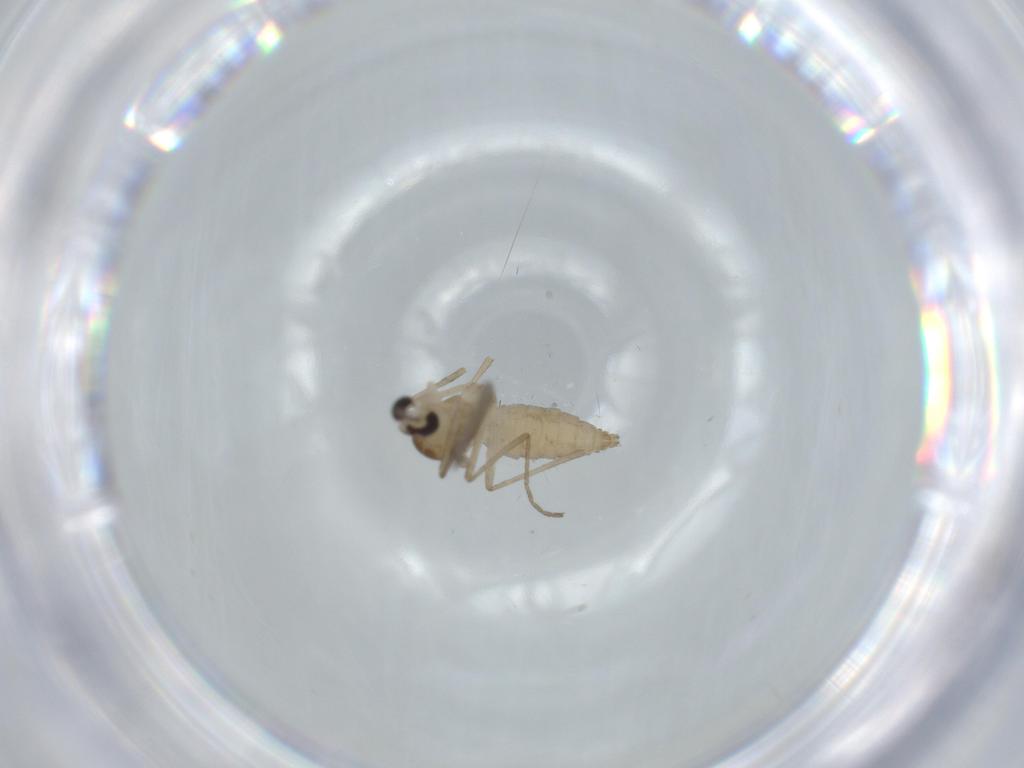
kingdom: Animalia
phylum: Arthropoda
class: Insecta
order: Diptera
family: Cecidomyiidae
